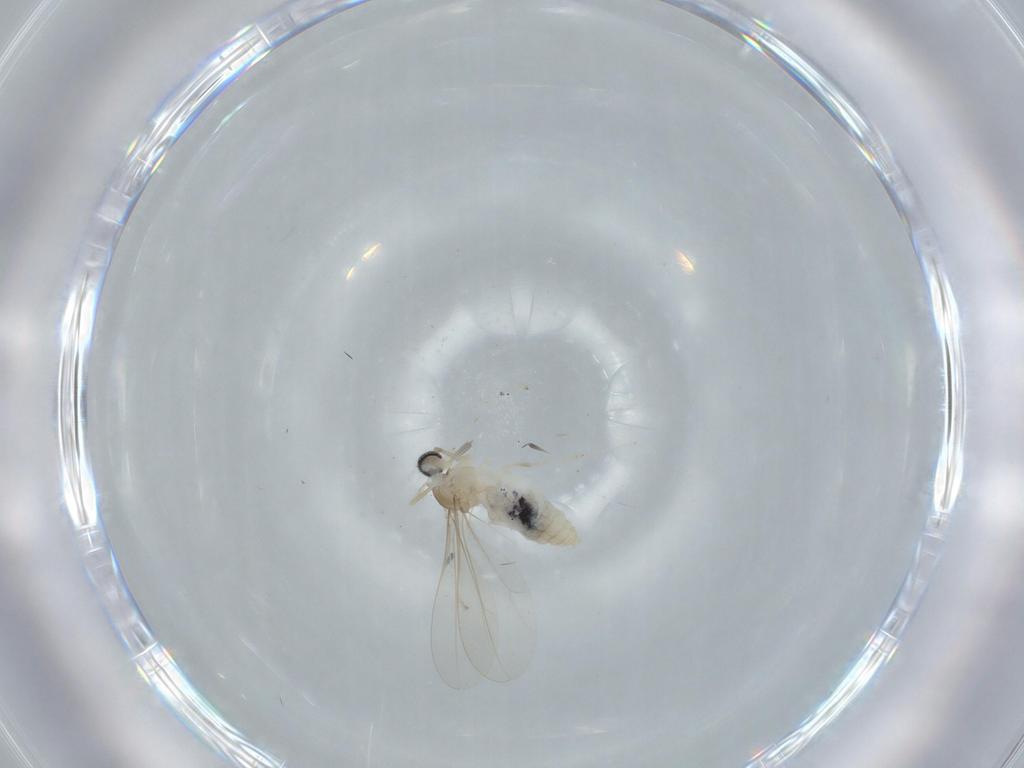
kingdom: Animalia
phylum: Arthropoda
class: Insecta
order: Diptera
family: Cecidomyiidae
